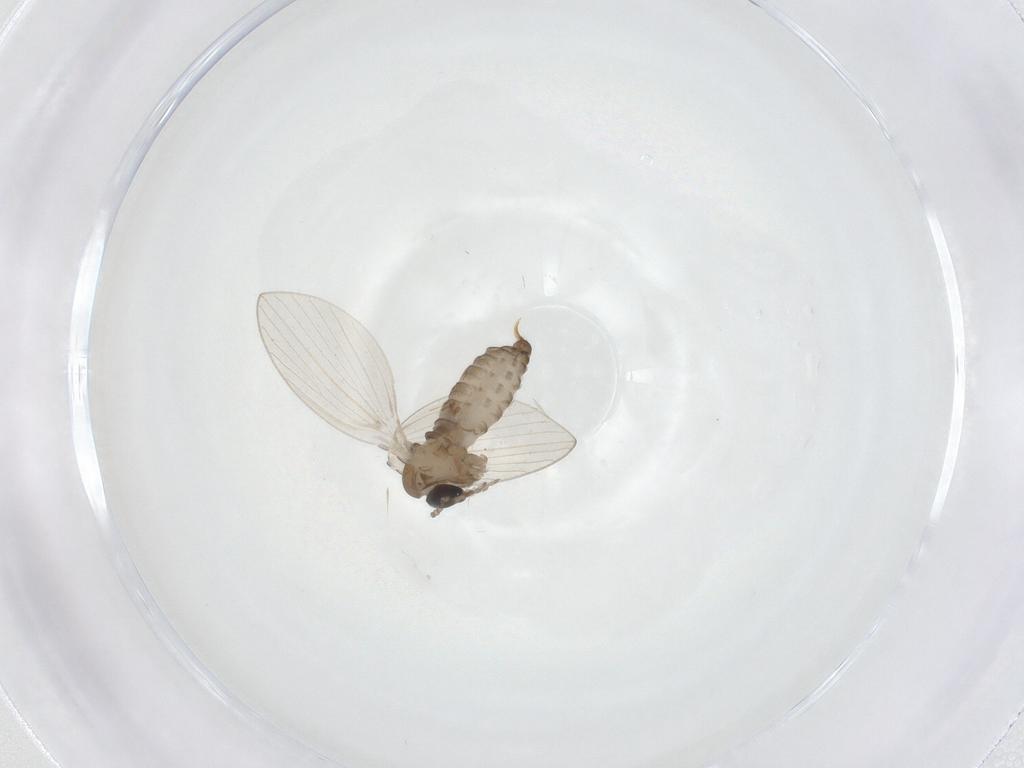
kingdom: Animalia
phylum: Arthropoda
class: Insecta
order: Diptera
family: Psychodidae
